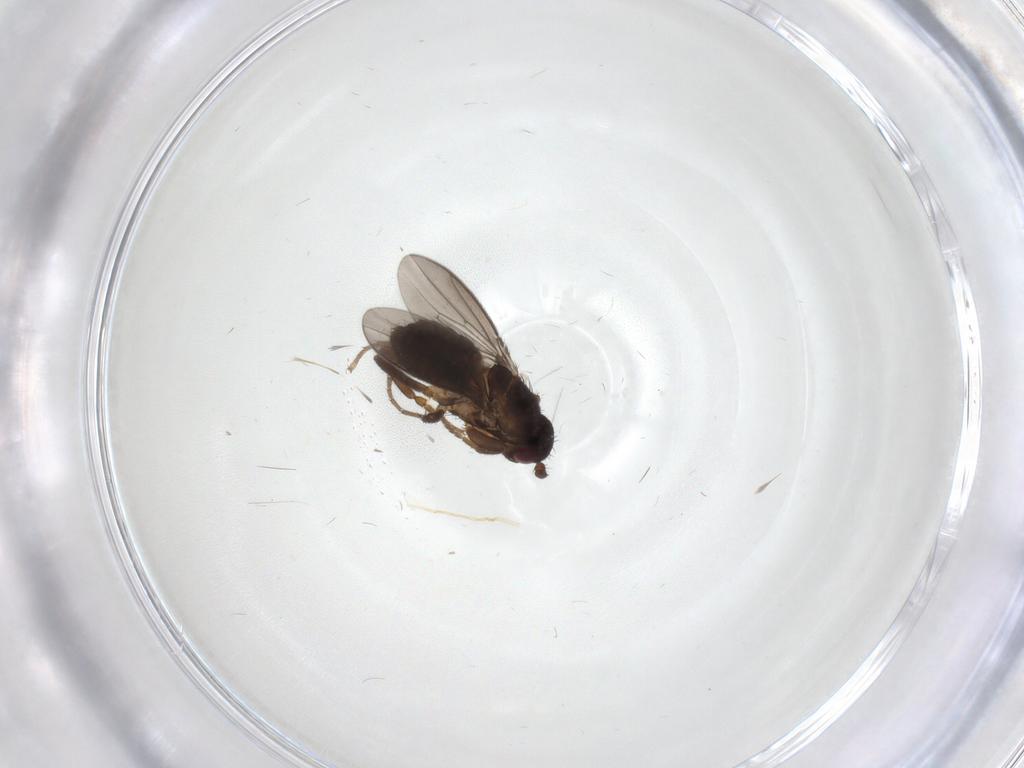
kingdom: Animalia
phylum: Arthropoda
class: Insecta
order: Diptera
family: Sphaeroceridae
